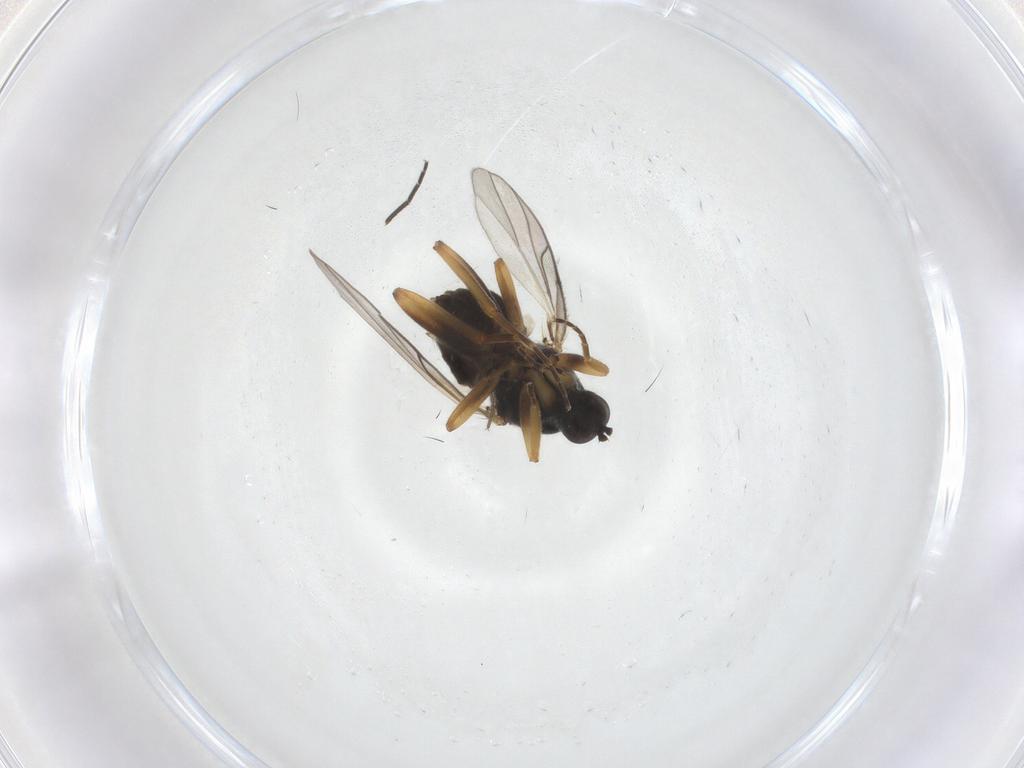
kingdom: Animalia
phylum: Arthropoda
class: Insecta
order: Diptera
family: Hybotidae
